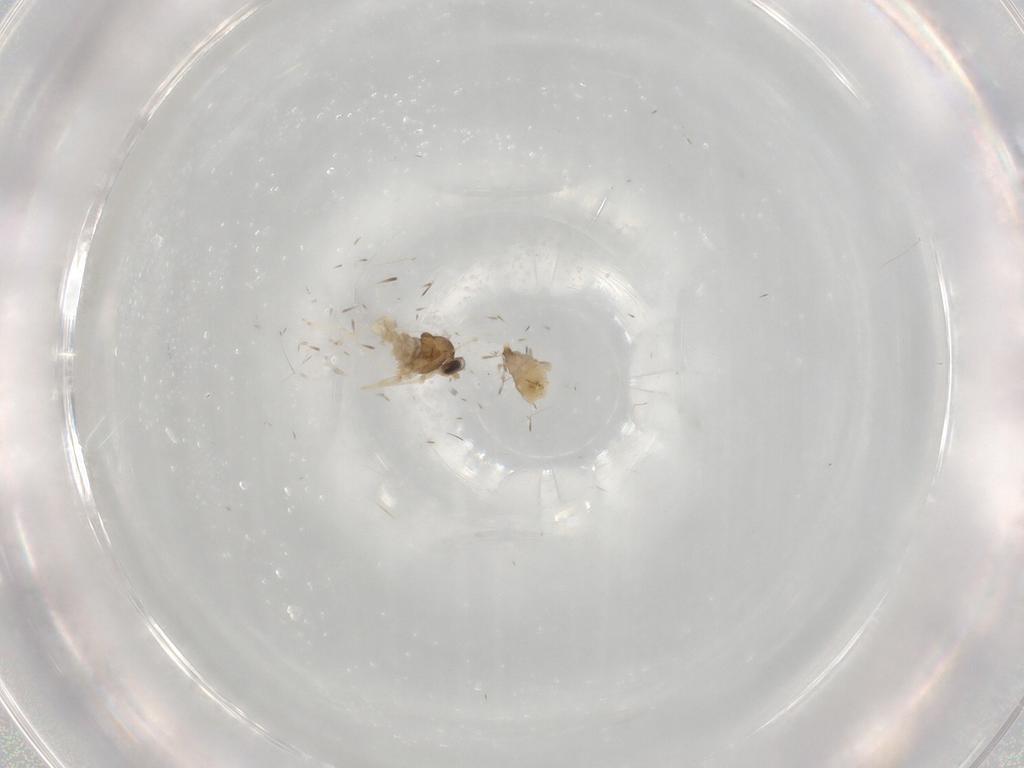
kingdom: Animalia
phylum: Arthropoda
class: Insecta
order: Diptera
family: Cecidomyiidae
